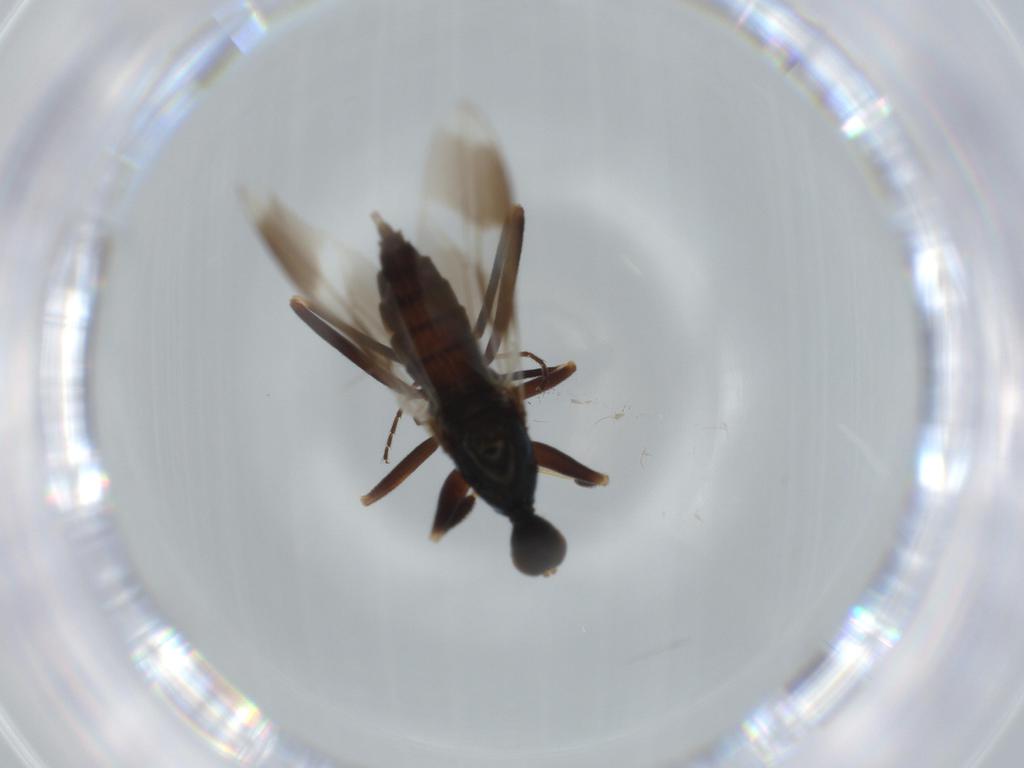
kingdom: Animalia
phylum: Arthropoda
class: Insecta
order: Diptera
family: Hybotidae
